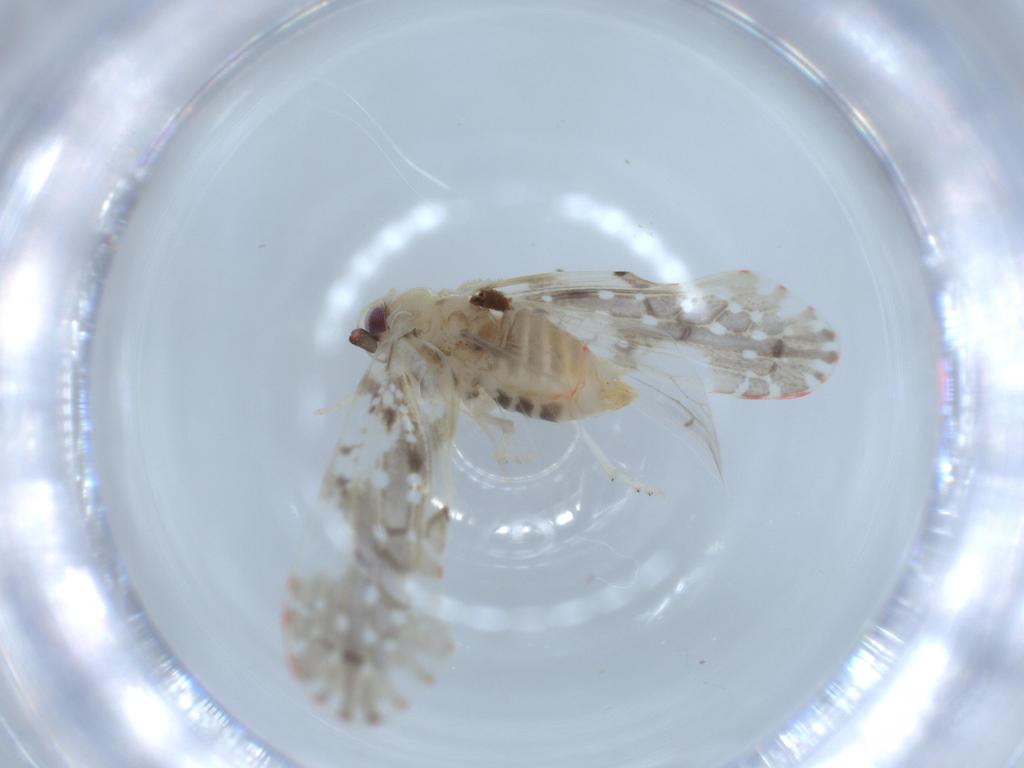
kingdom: Animalia
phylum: Arthropoda
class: Insecta
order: Hemiptera
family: Derbidae
